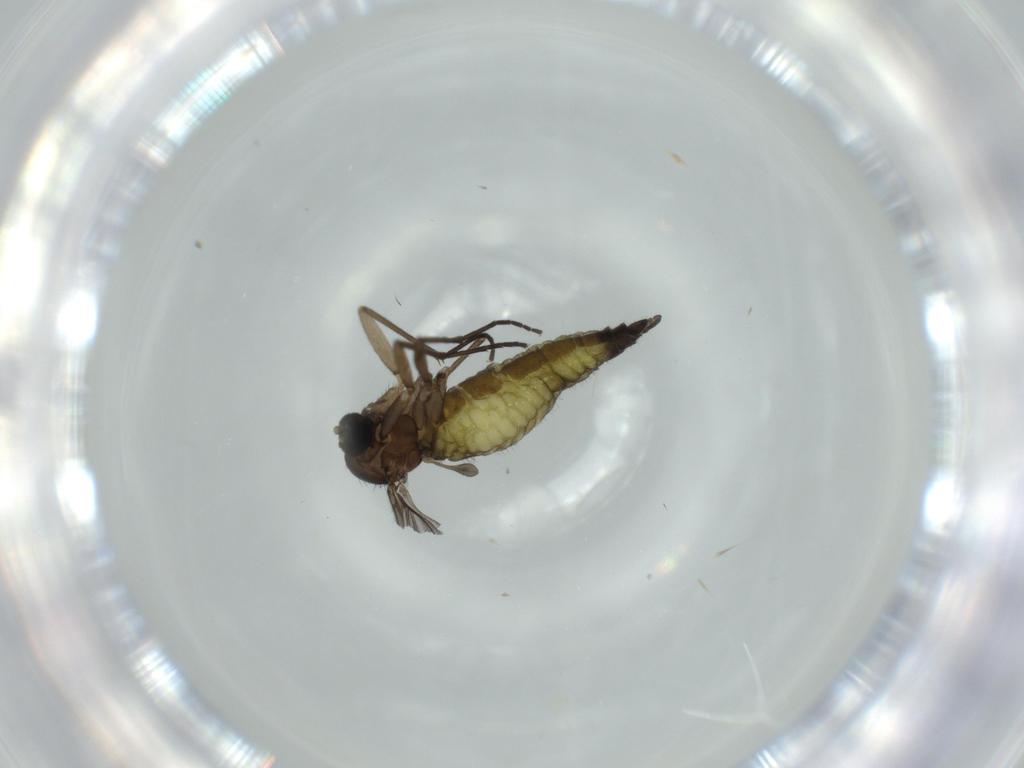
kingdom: Animalia
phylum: Arthropoda
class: Insecta
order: Diptera
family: Sciaridae
